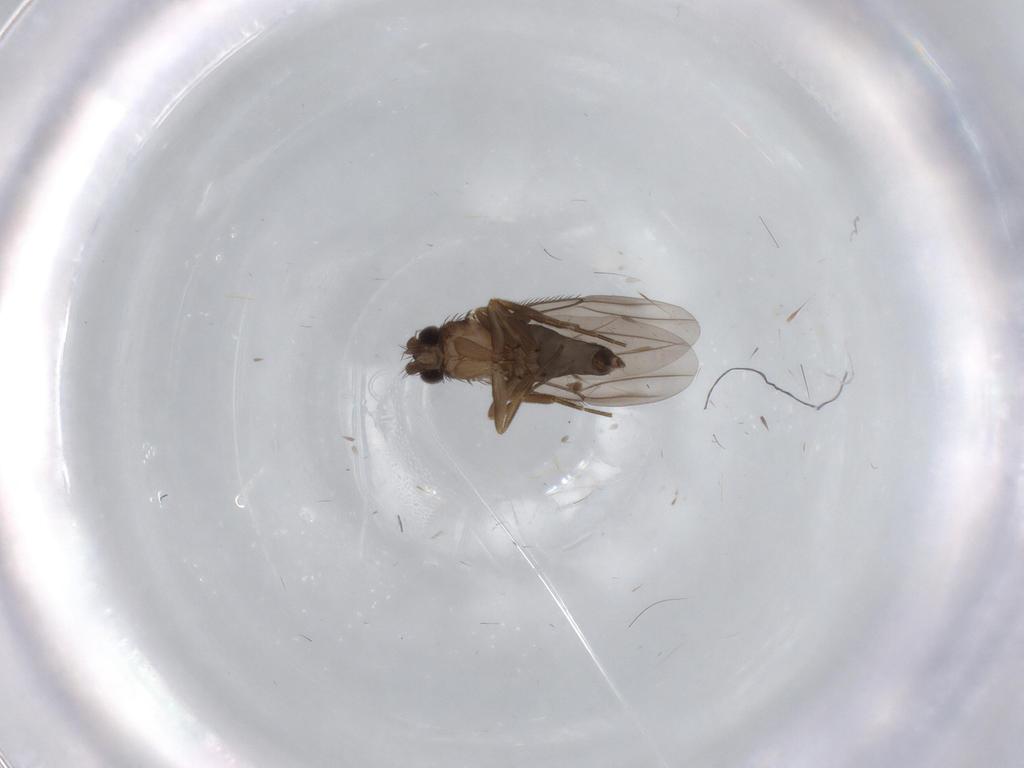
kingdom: Animalia
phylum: Arthropoda
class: Insecta
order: Diptera
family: Phoridae
